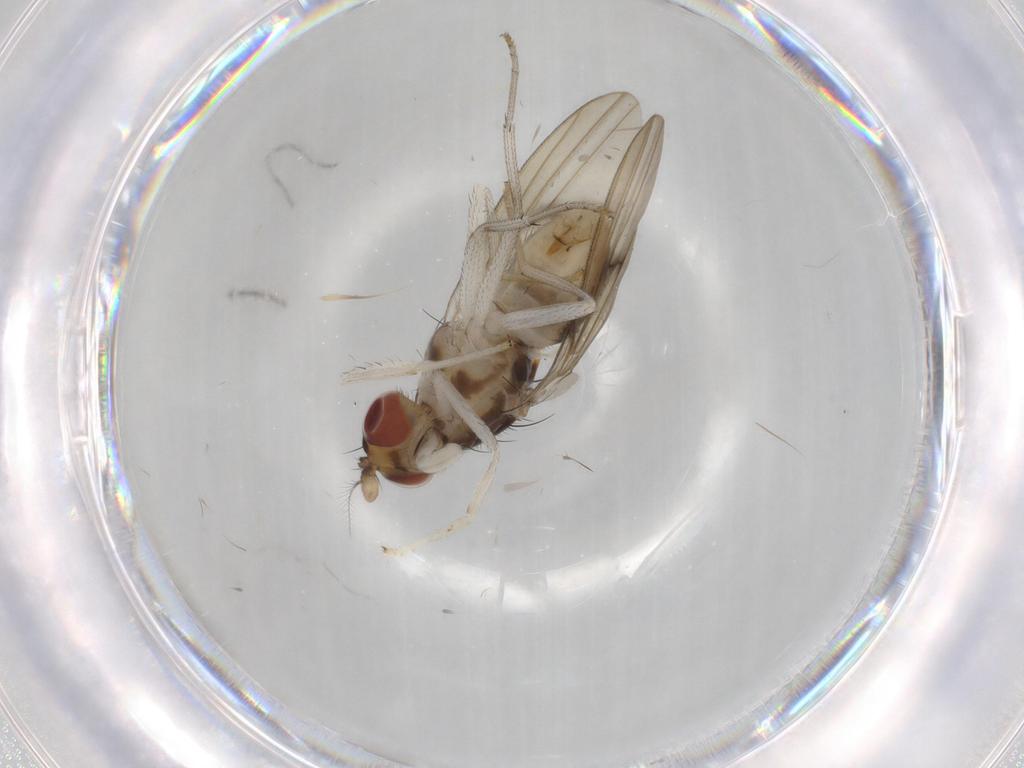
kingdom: Animalia
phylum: Arthropoda
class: Insecta
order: Diptera
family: Lauxaniidae
